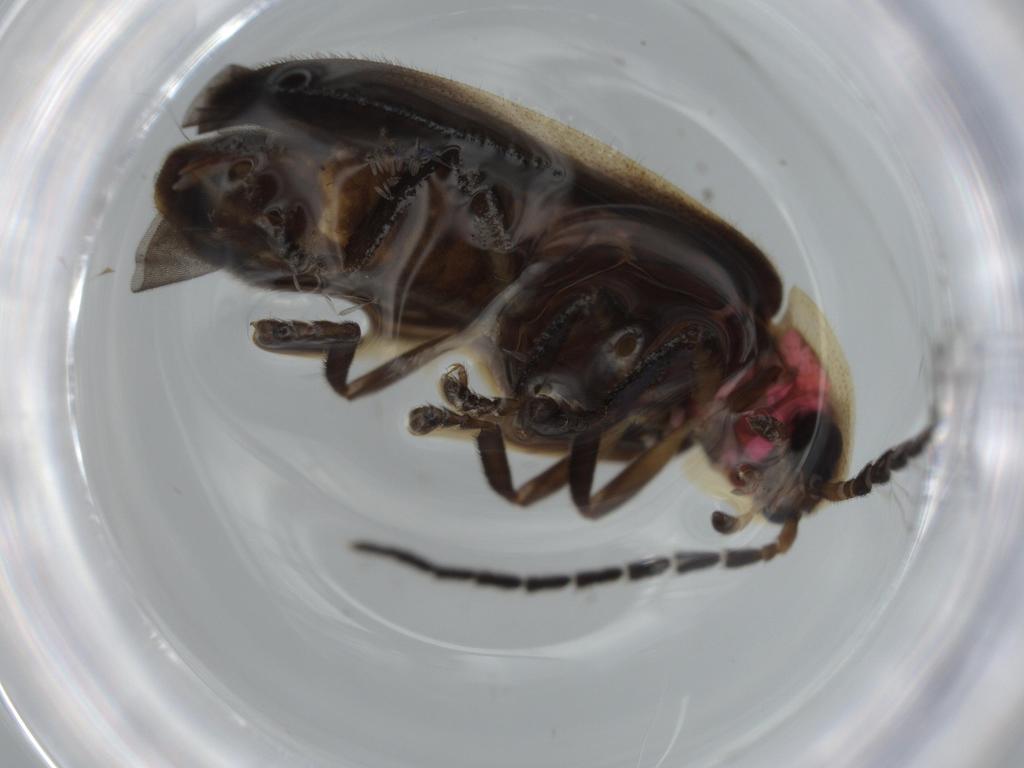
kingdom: Animalia
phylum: Arthropoda
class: Insecta
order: Coleoptera
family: Lampyridae
